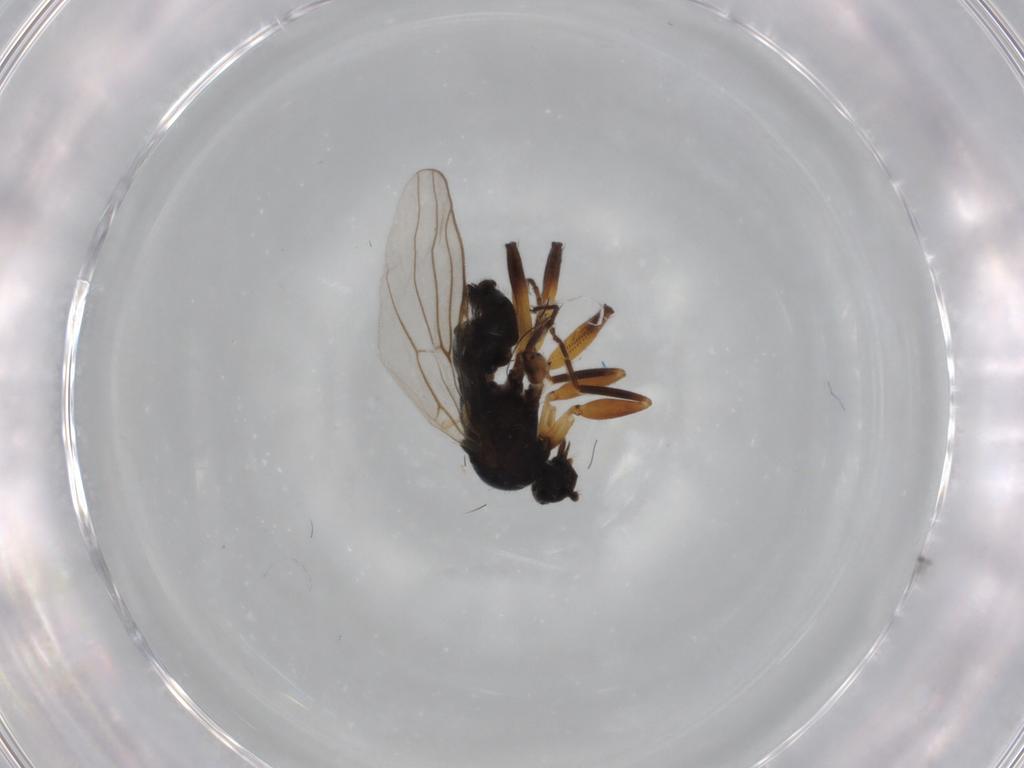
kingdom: Animalia
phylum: Arthropoda
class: Insecta
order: Diptera
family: Hybotidae
